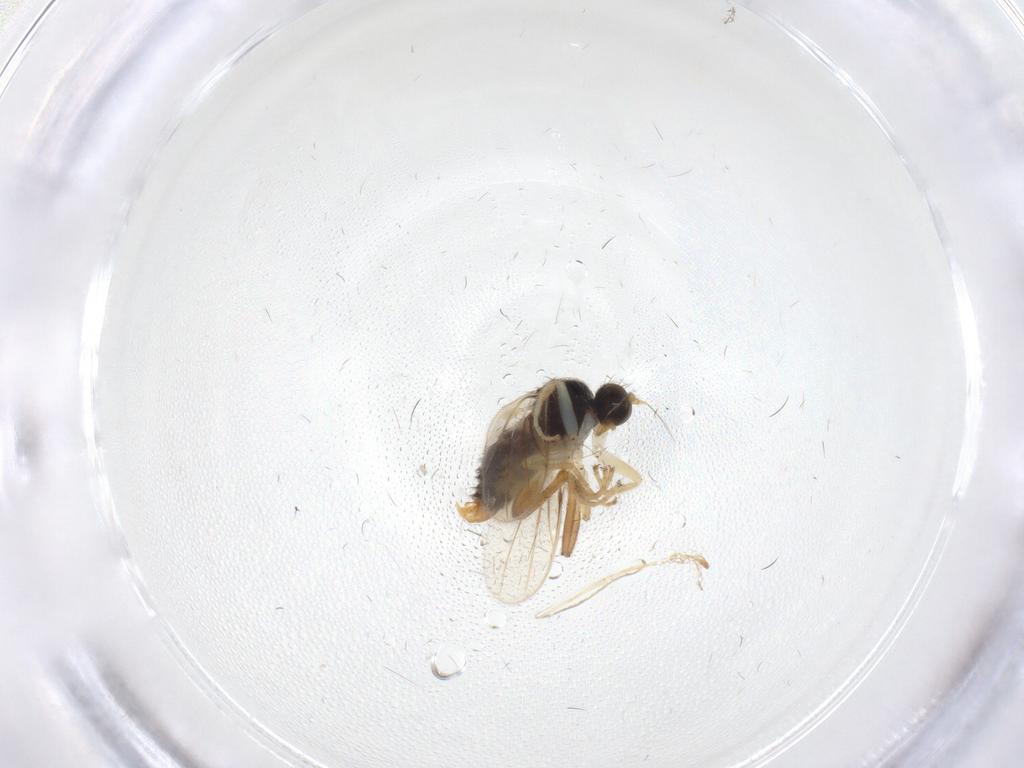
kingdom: Animalia
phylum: Arthropoda
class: Insecta
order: Diptera
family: Hybotidae
